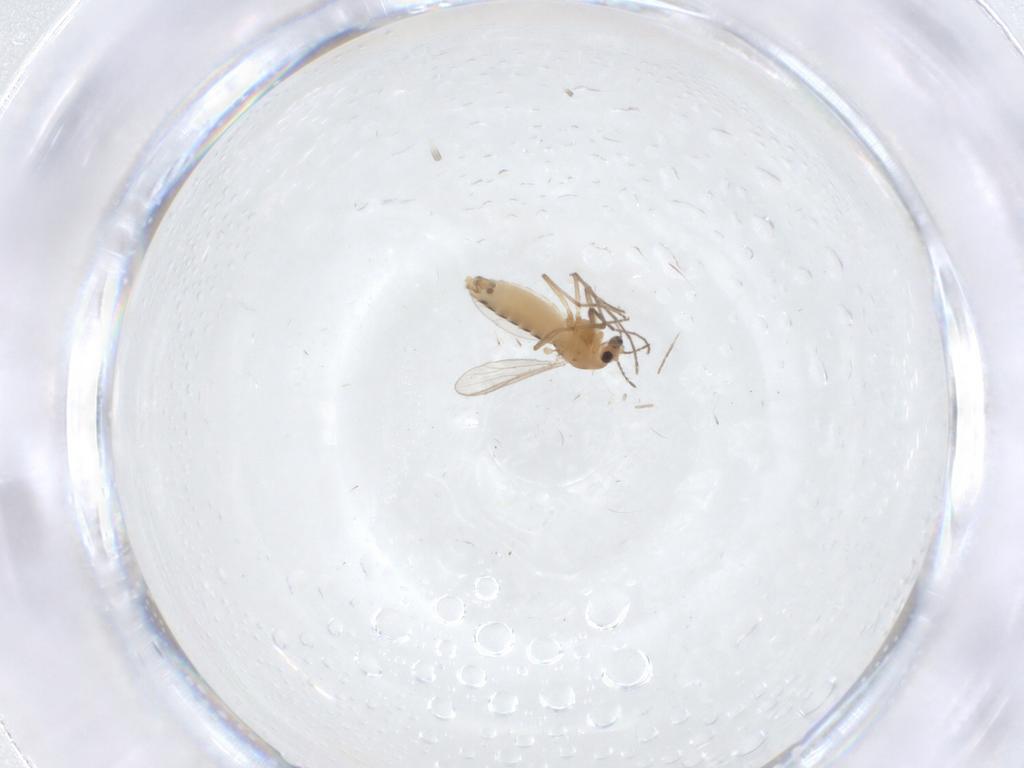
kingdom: Animalia
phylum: Arthropoda
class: Insecta
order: Diptera
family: Chironomidae
